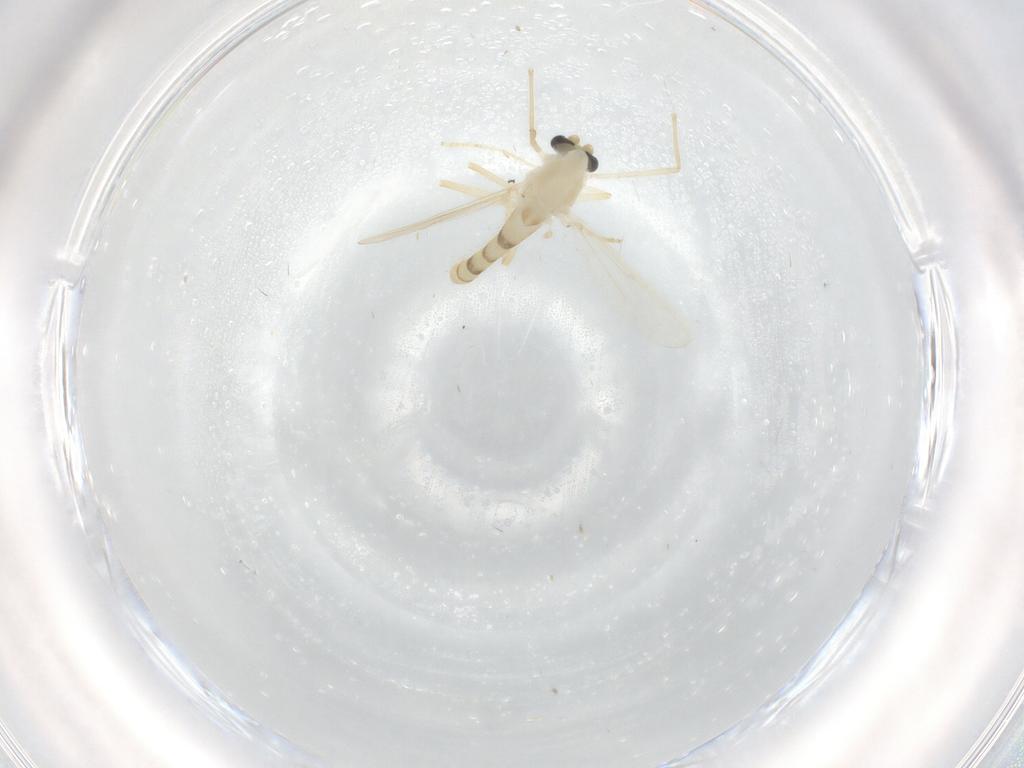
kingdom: Animalia
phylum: Arthropoda
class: Insecta
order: Diptera
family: Chironomidae
